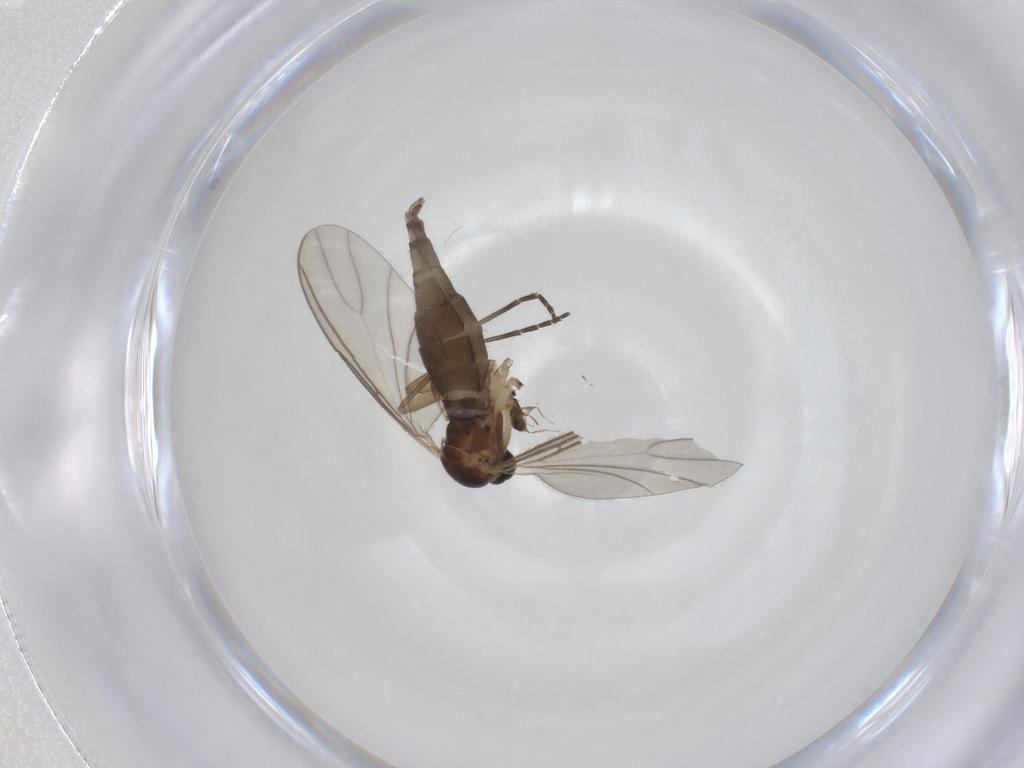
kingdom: Animalia
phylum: Arthropoda
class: Insecta
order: Diptera
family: Sciaridae
